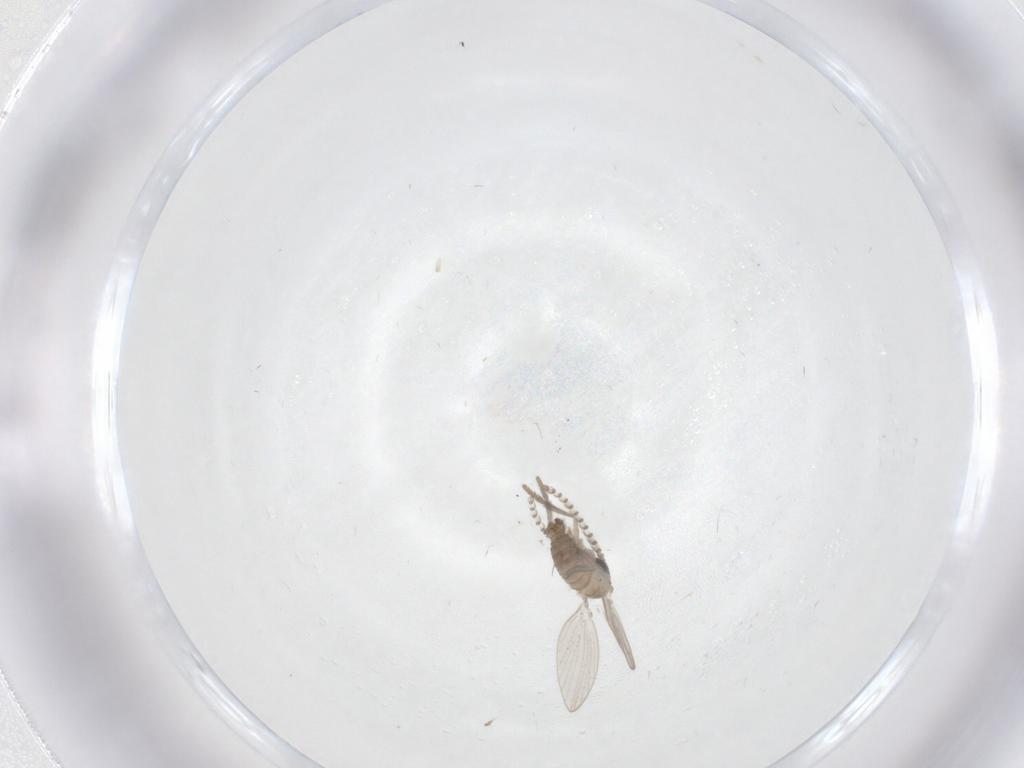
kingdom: Animalia
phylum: Arthropoda
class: Insecta
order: Diptera
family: Psychodidae
